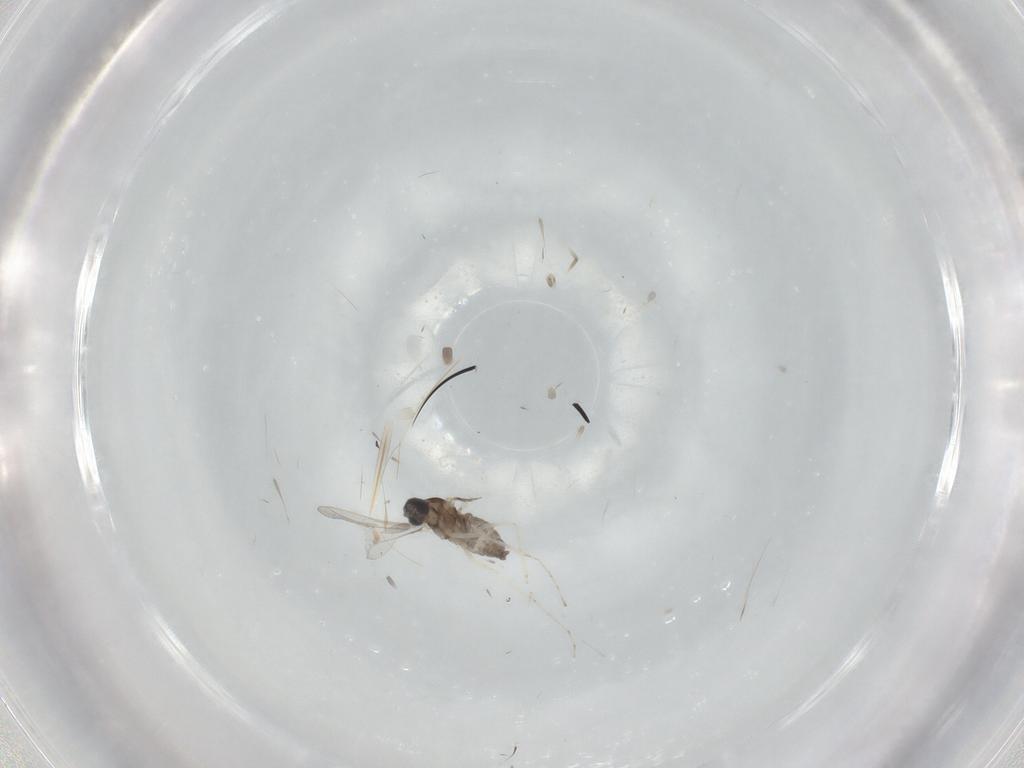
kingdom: Animalia
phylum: Arthropoda
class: Insecta
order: Diptera
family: Cecidomyiidae
